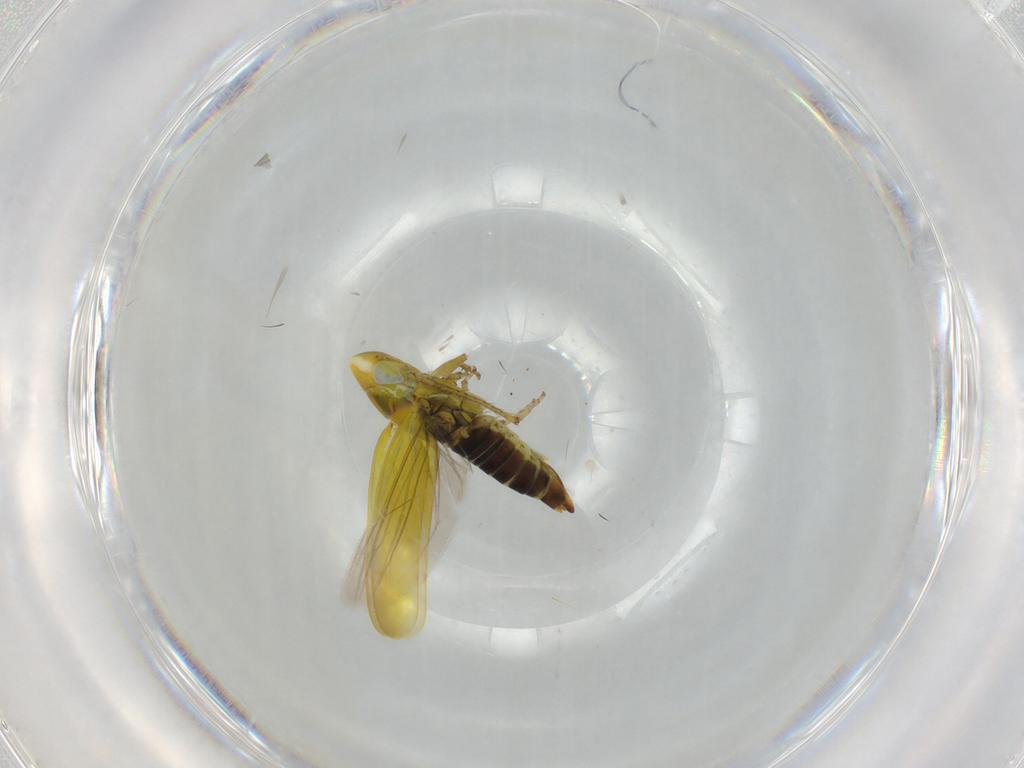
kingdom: Animalia
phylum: Arthropoda
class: Insecta
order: Hemiptera
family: Cicadellidae
